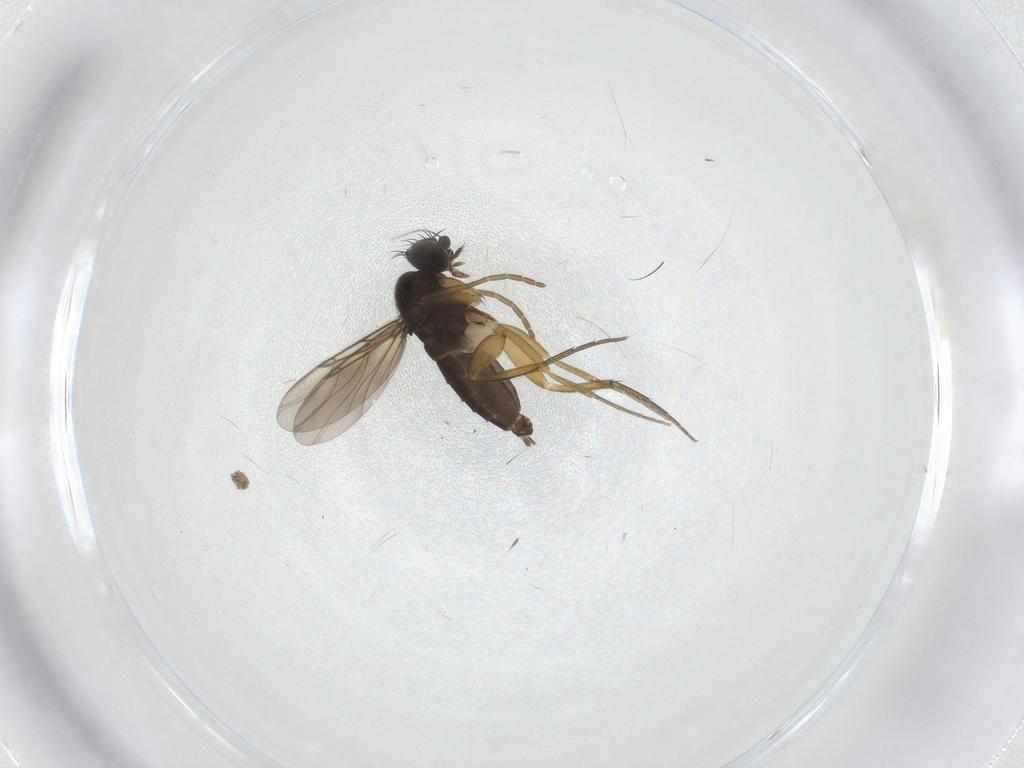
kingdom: Animalia
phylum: Arthropoda
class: Insecta
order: Diptera
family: Limoniidae
